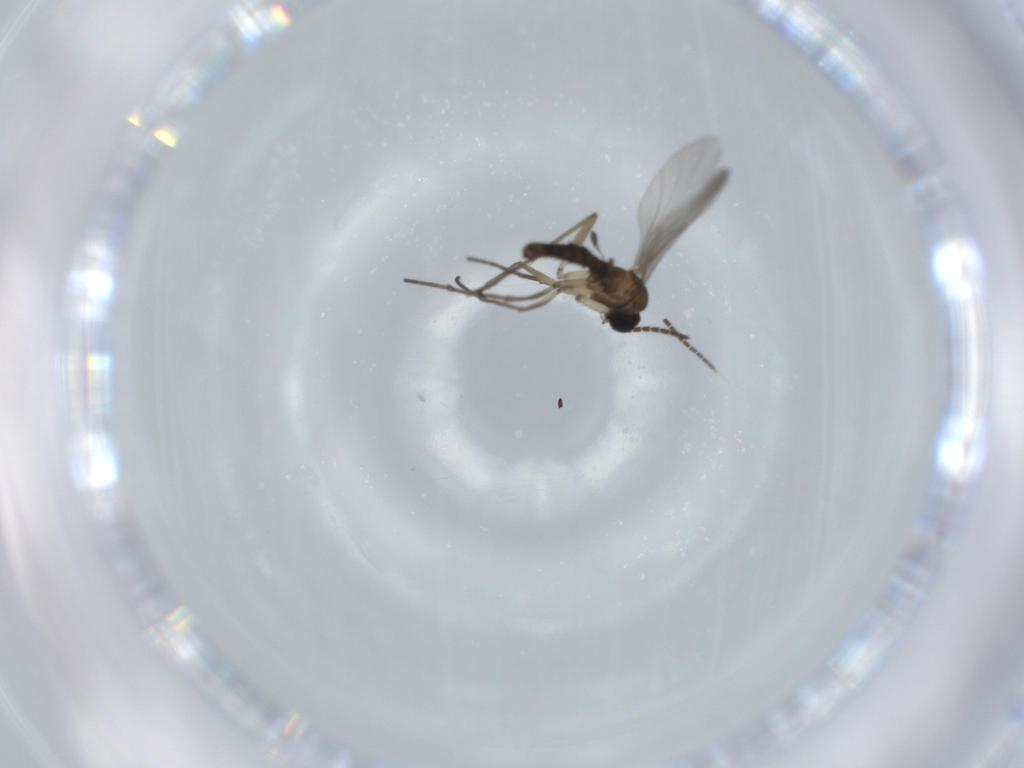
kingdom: Animalia
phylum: Arthropoda
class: Insecta
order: Diptera
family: Sciaridae
